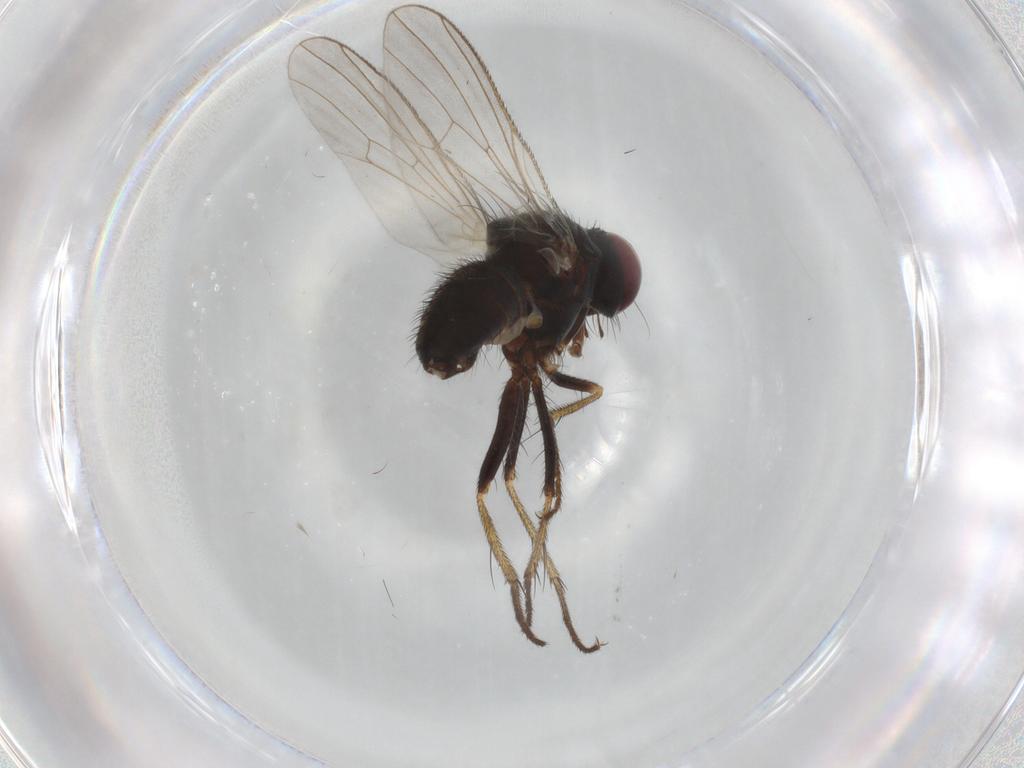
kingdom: Animalia
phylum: Arthropoda
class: Insecta
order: Diptera
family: Muscidae
